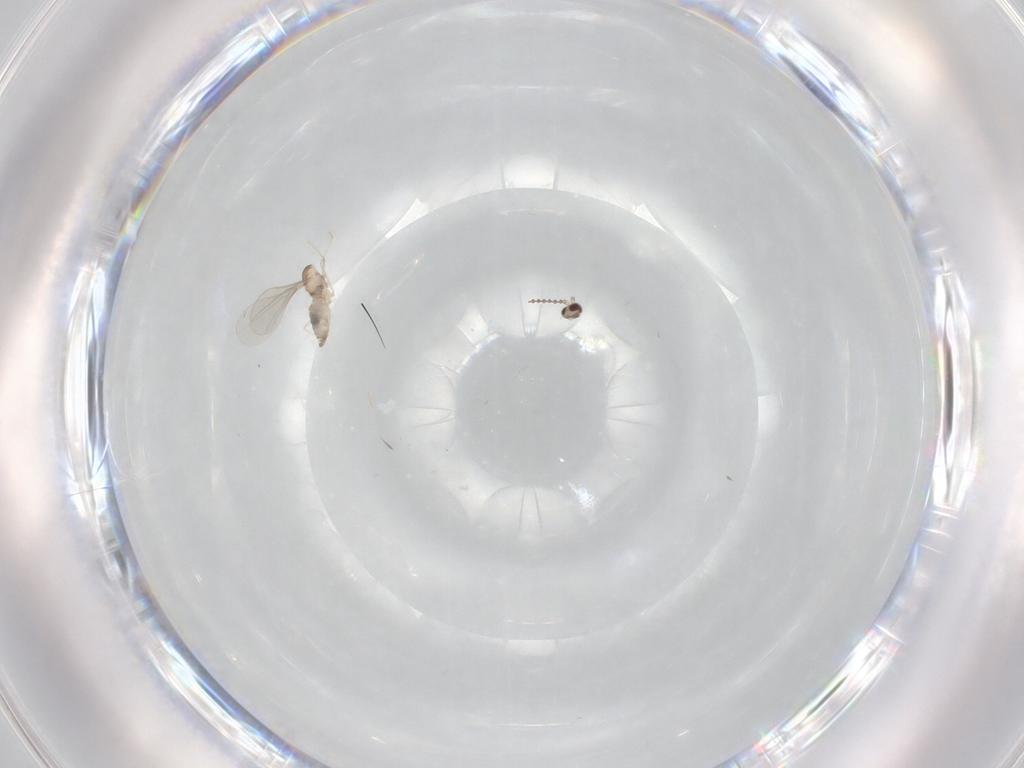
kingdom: Animalia
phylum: Arthropoda
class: Insecta
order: Diptera
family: Cecidomyiidae
